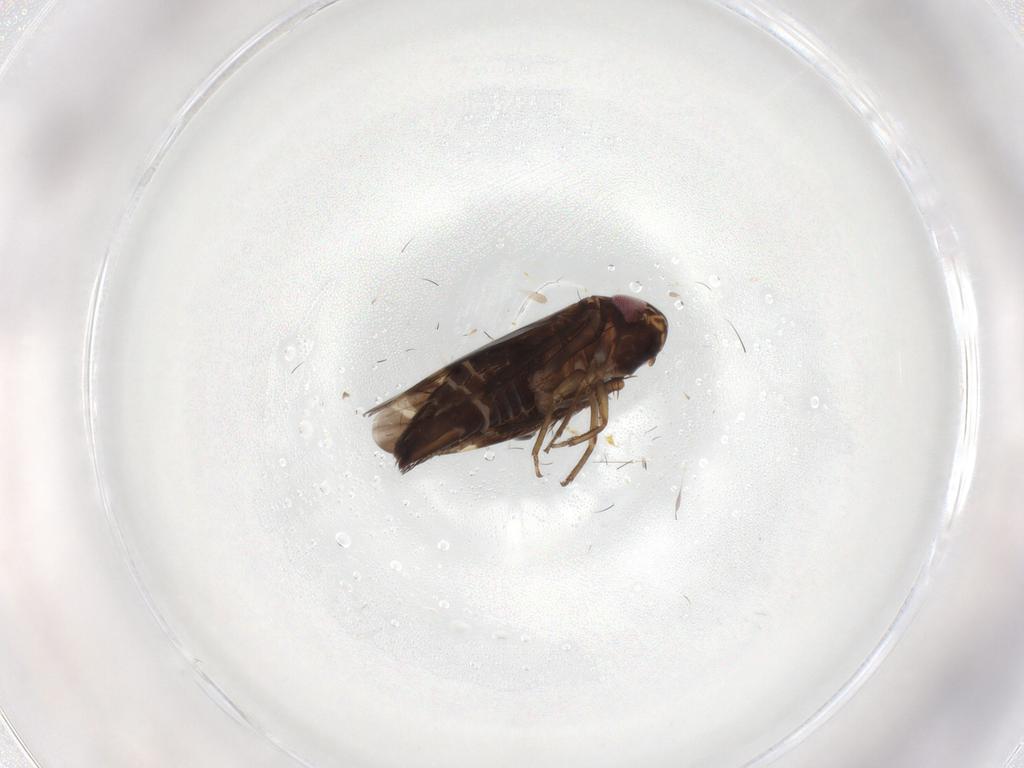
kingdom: Animalia
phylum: Arthropoda
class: Insecta
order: Hemiptera
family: Cicadellidae
